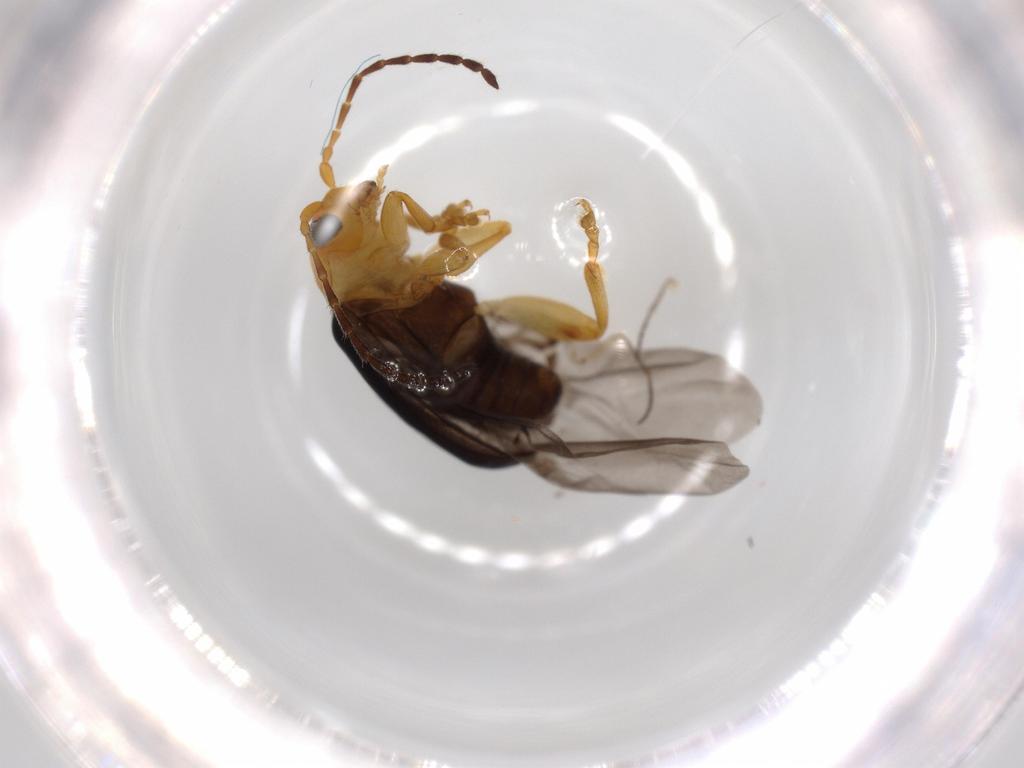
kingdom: Animalia
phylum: Arthropoda
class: Insecta
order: Coleoptera
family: Chrysomelidae
